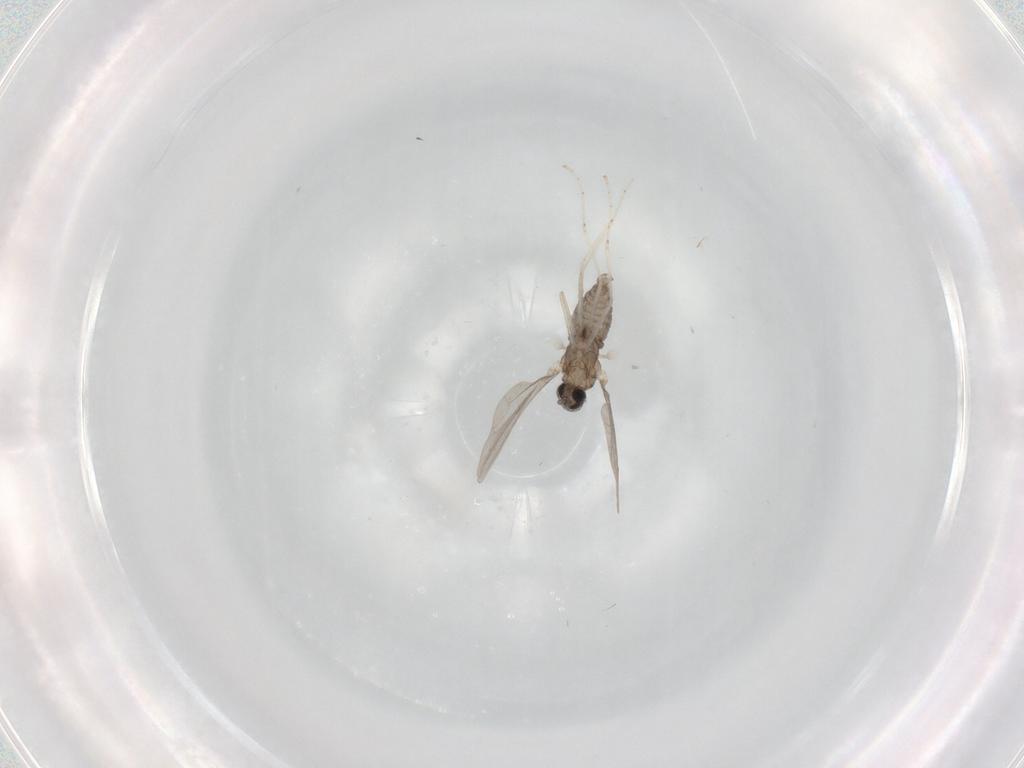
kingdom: Animalia
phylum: Arthropoda
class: Insecta
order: Diptera
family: Cecidomyiidae
